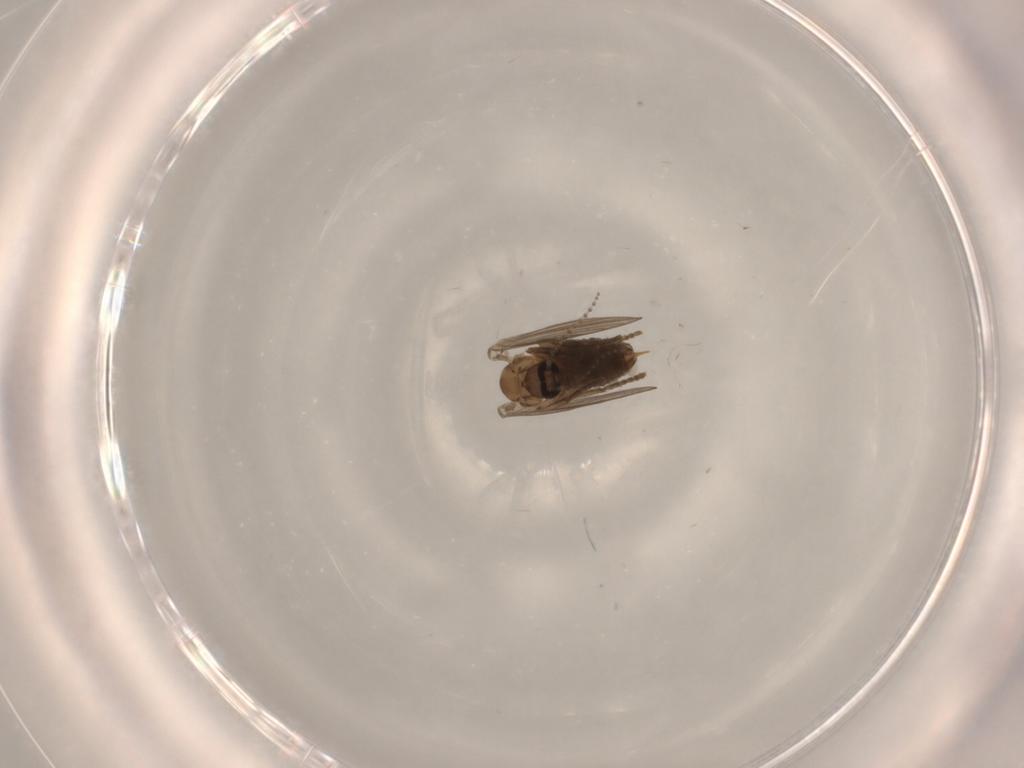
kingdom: Animalia
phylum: Arthropoda
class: Insecta
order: Diptera
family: Cecidomyiidae
